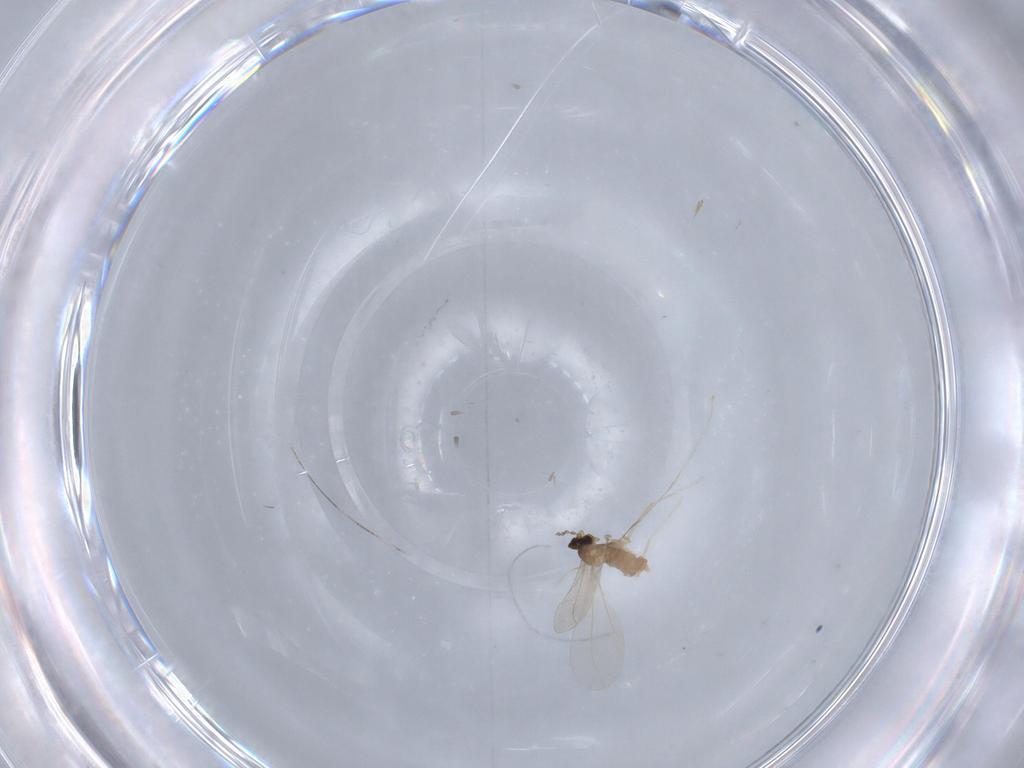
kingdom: Animalia
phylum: Arthropoda
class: Insecta
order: Diptera
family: Cecidomyiidae
